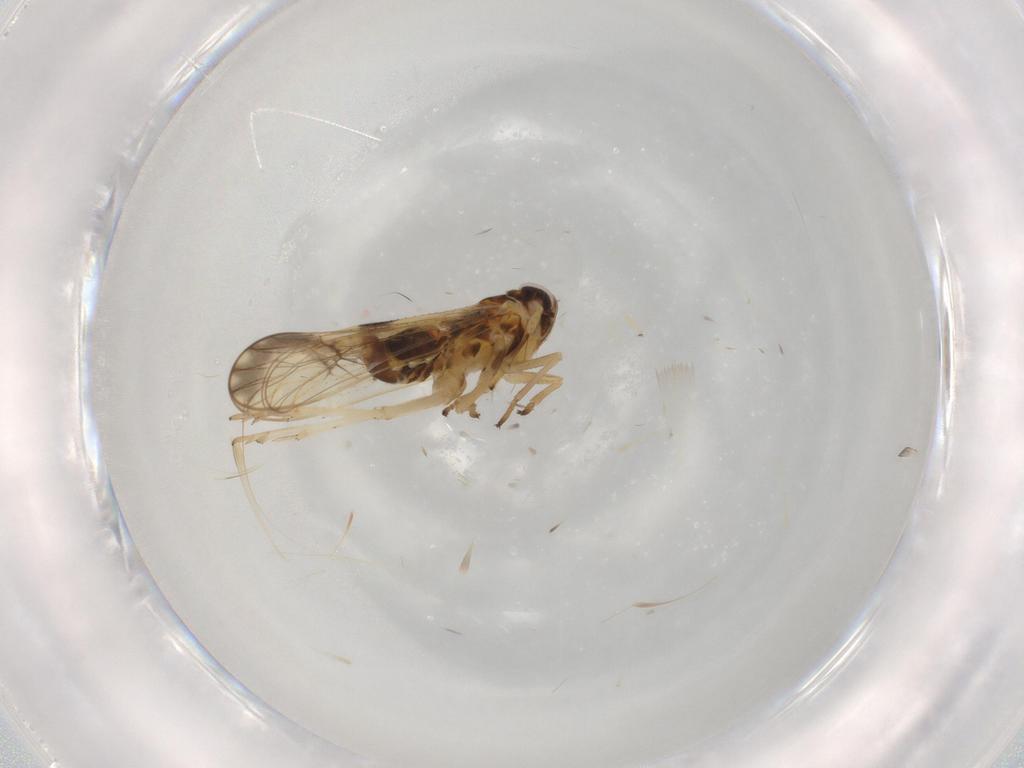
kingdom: Animalia
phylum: Arthropoda
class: Insecta
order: Hemiptera
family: Delphacidae
